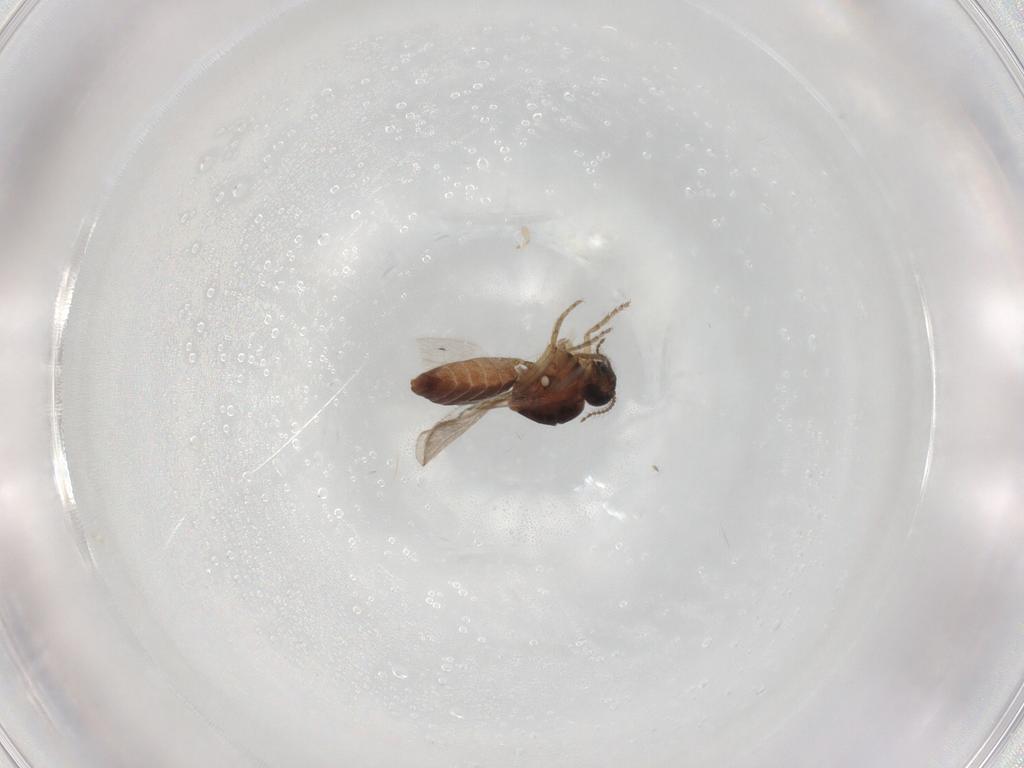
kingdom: Animalia
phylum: Arthropoda
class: Insecta
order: Diptera
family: Ceratopogonidae
